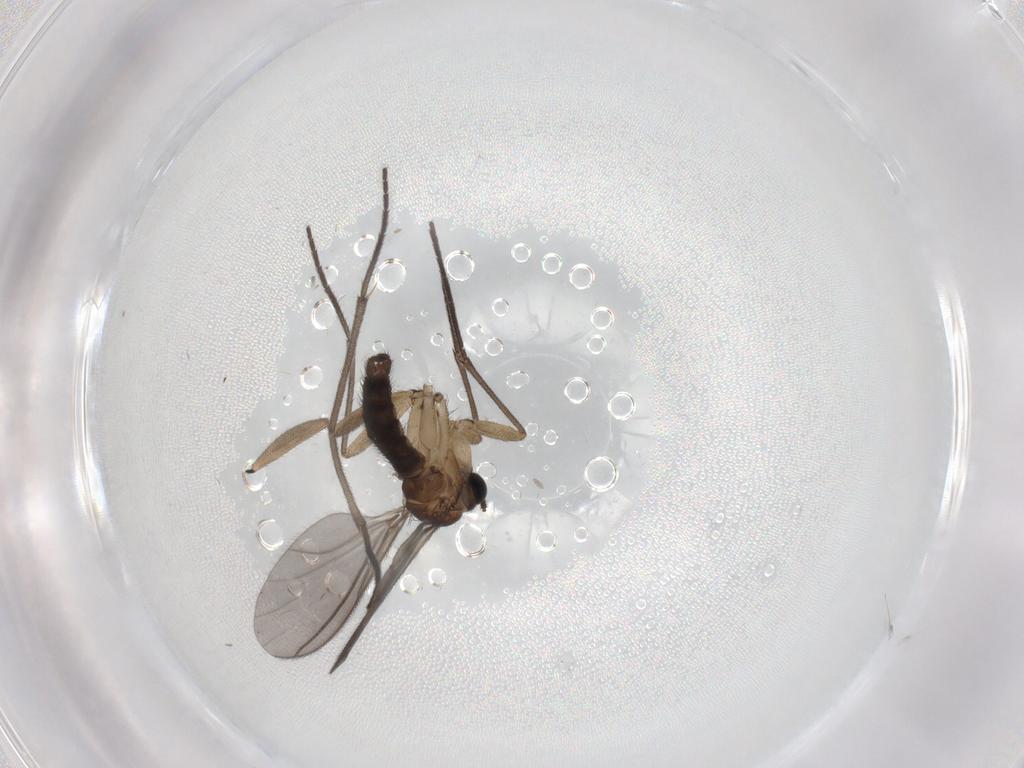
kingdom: Animalia
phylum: Arthropoda
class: Insecta
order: Diptera
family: Sciaridae
